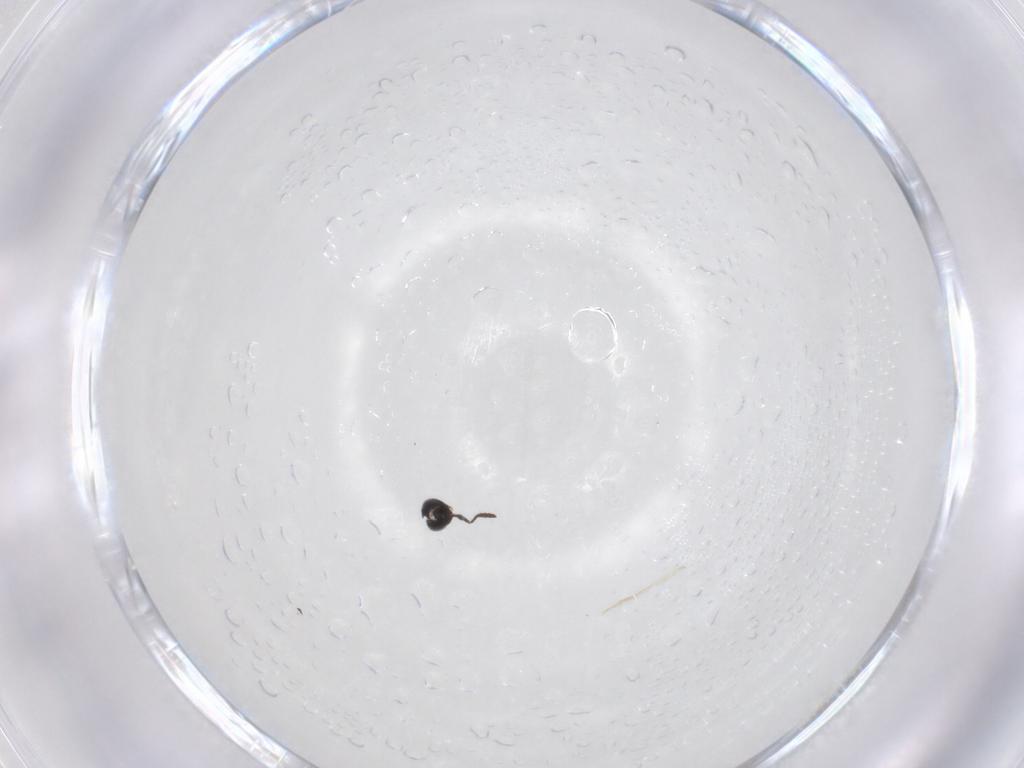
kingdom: Animalia
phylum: Arthropoda
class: Insecta
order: Hymenoptera
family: Scelionidae
